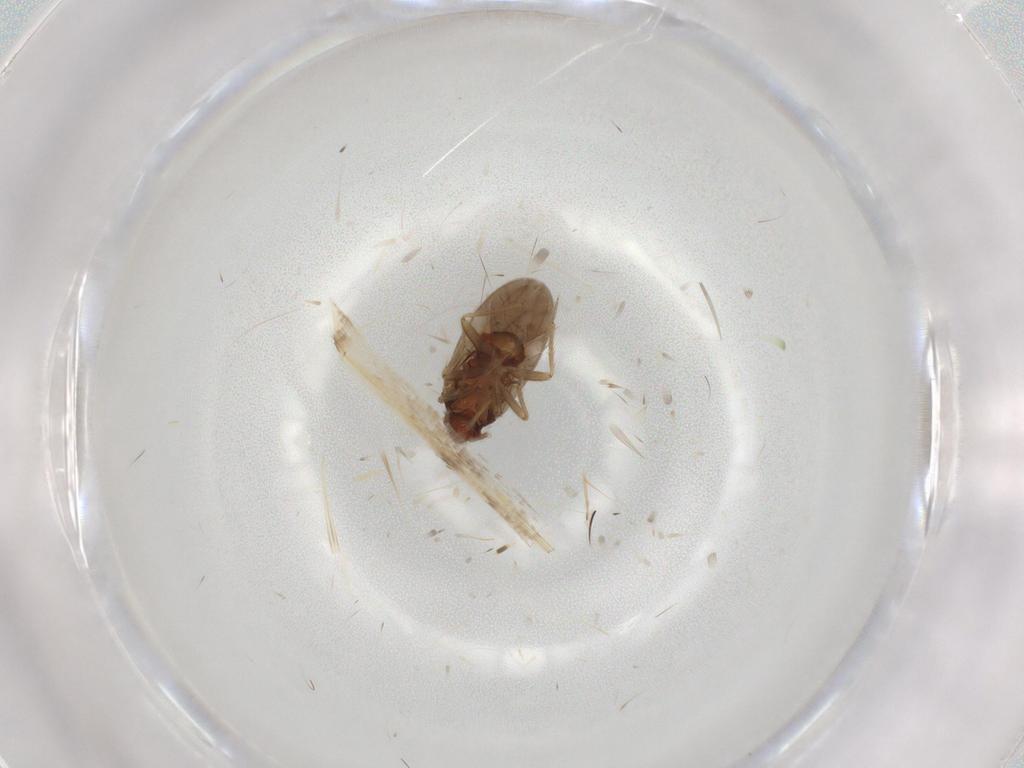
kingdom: Animalia
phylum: Arthropoda
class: Insecta
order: Hemiptera
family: Ceratocombidae
